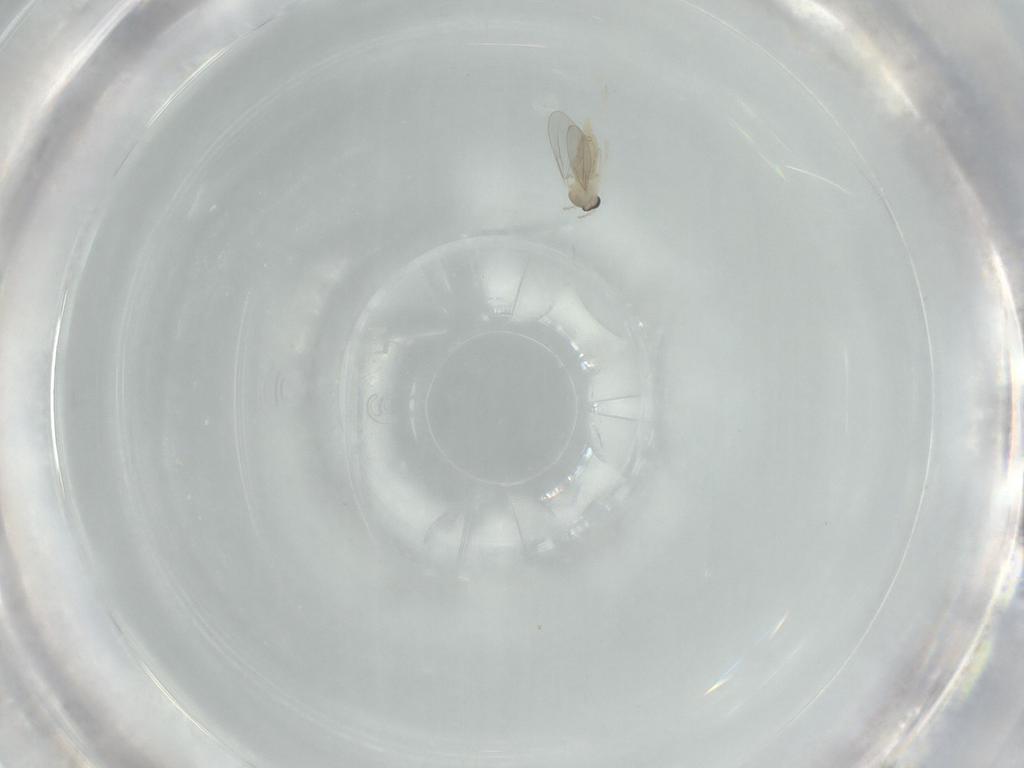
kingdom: Animalia
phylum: Arthropoda
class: Insecta
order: Diptera
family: Cecidomyiidae
